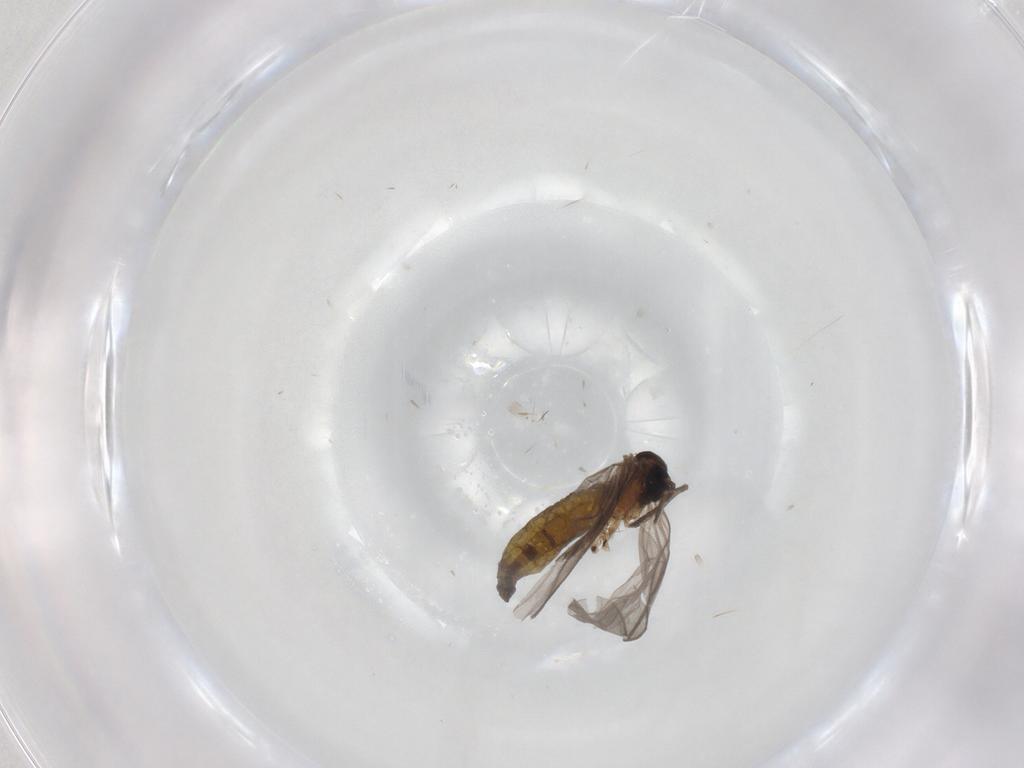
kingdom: Animalia
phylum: Arthropoda
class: Insecta
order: Diptera
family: Sciaridae
